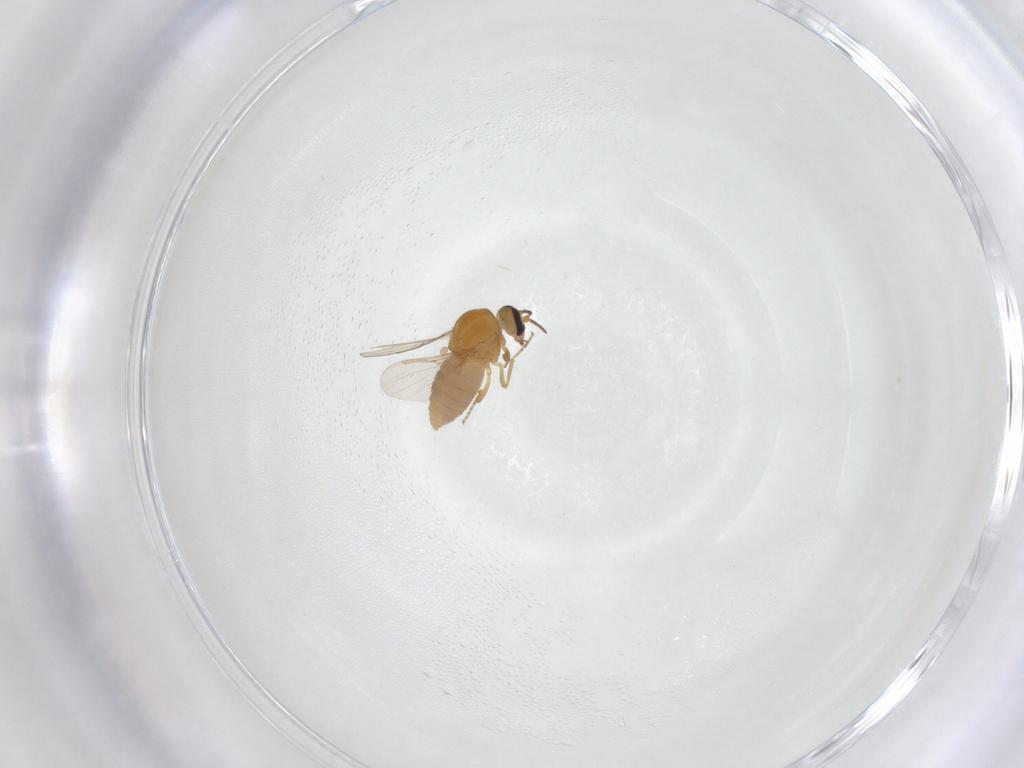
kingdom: Animalia
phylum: Arthropoda
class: Insecta
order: Diptera
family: Ceratopogonidae
